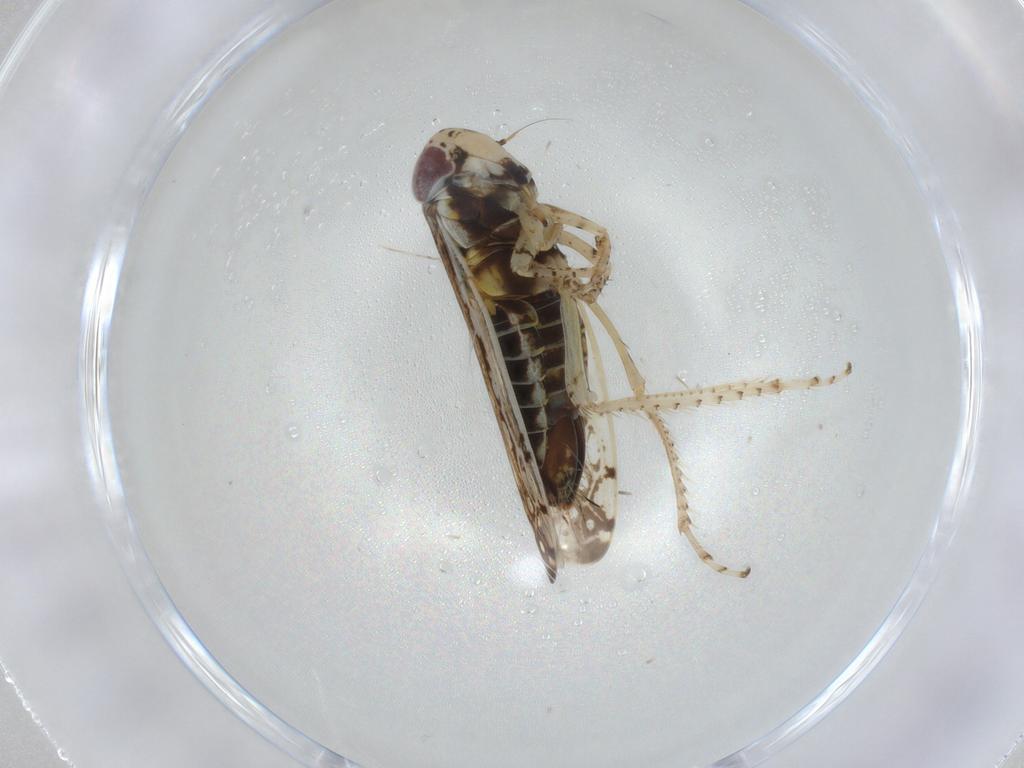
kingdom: Animalia
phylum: Arthropoda
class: Insecta
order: Hemiptera
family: Cicadellidae
